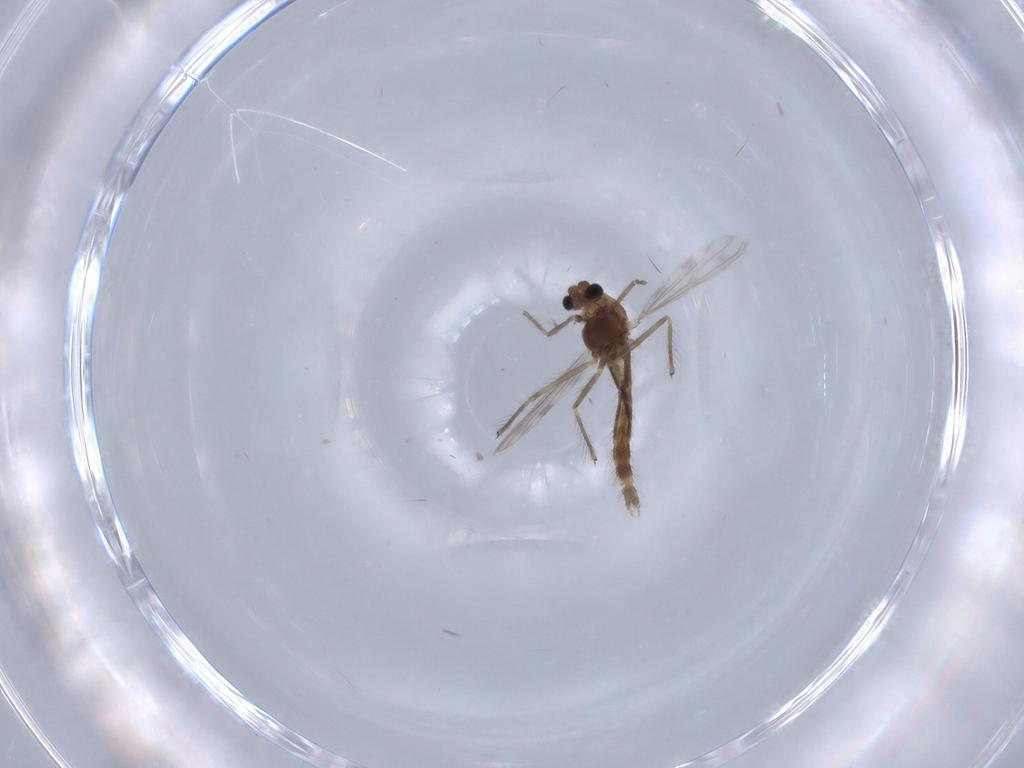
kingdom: Animalia
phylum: Arthropoda
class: Insecta
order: Diptera
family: Chironomidae
